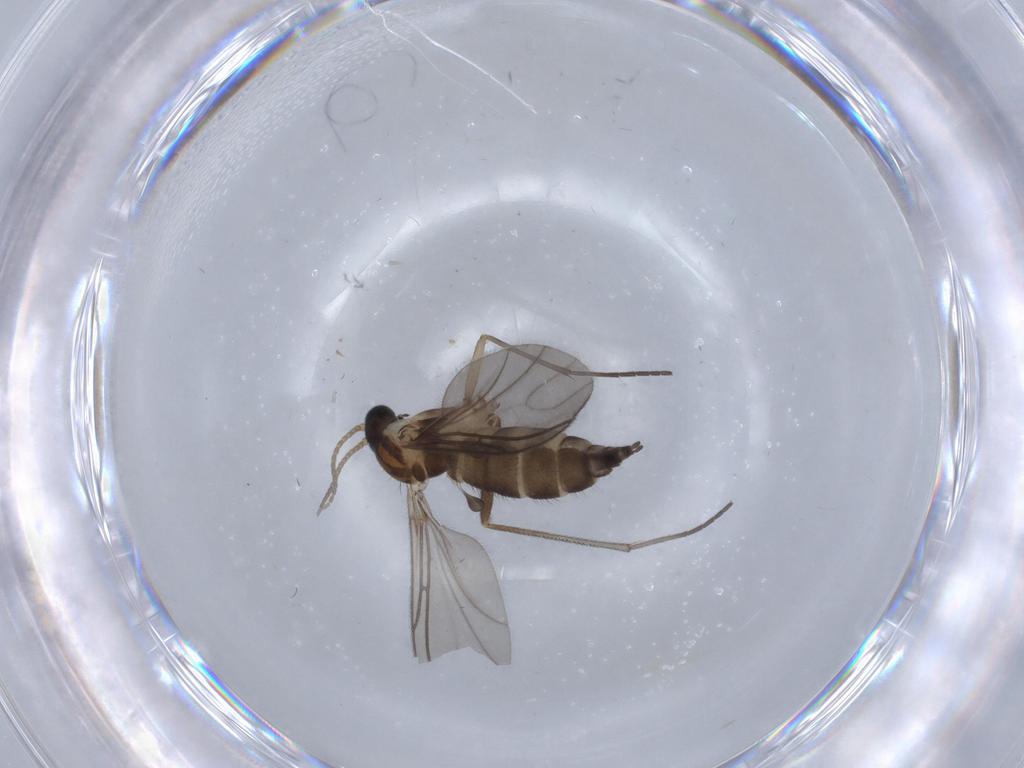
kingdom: Animalia
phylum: Arthropoda
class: Insecta
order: Diptera
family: Sciaridae
